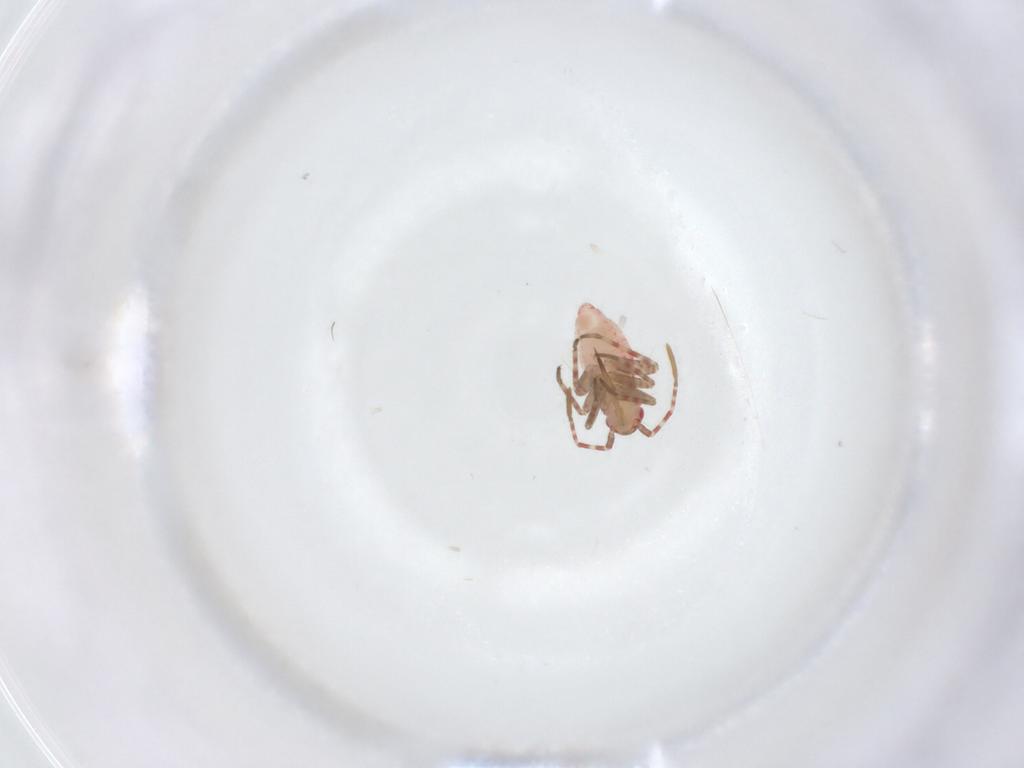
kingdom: Animalia
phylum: Arthropoda
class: Insecta
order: Hemiptera
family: Miridae
